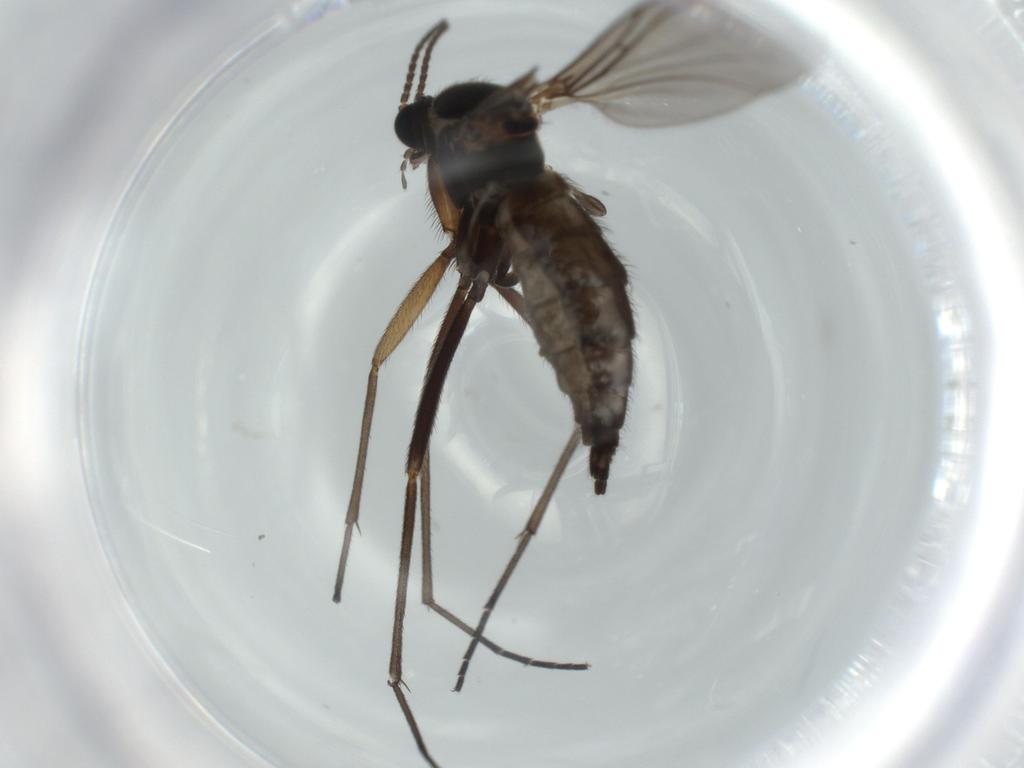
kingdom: Animalia
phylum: Arthropoda
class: Insecta
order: Diptera
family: Sciaridae
